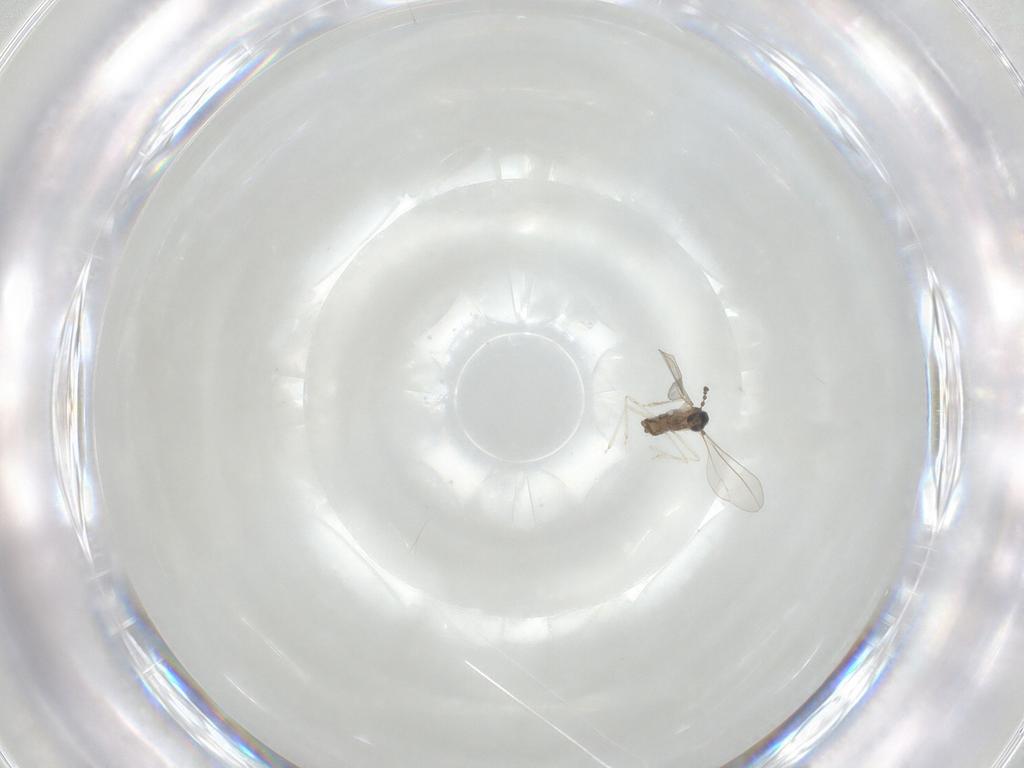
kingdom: Animalia
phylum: Arthropoda
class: Insecta
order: Diptera
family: Cecidomyiidae
